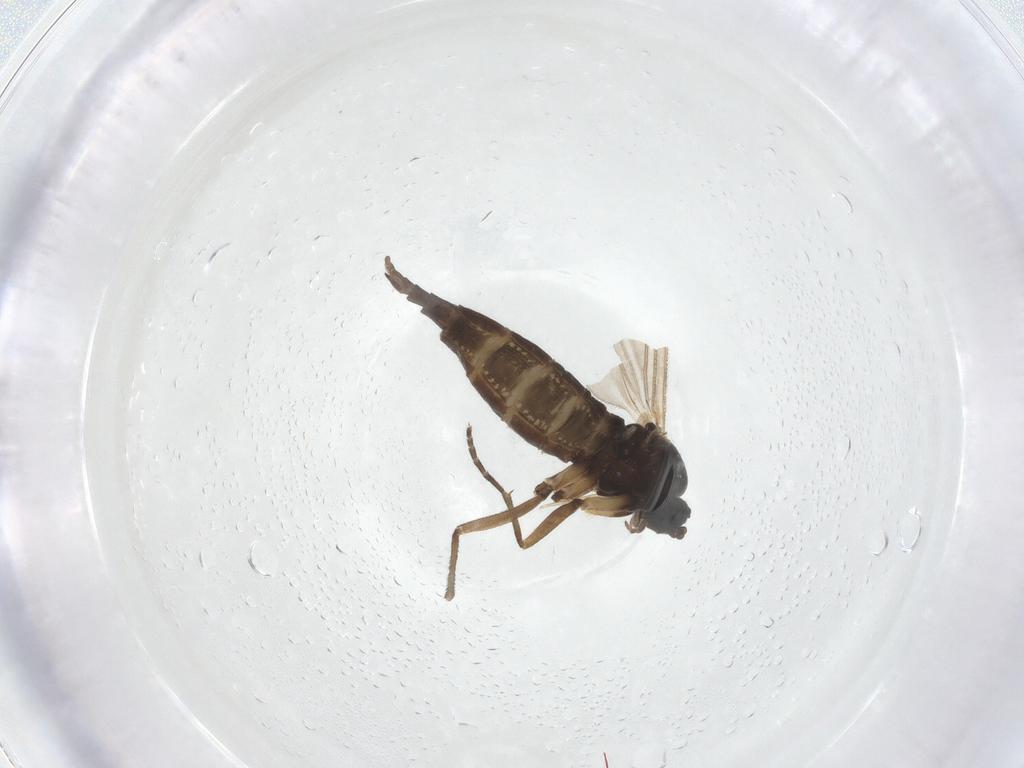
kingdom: Animalia
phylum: Arthropoda
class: Insecta
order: Diptera
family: Sciaridae
